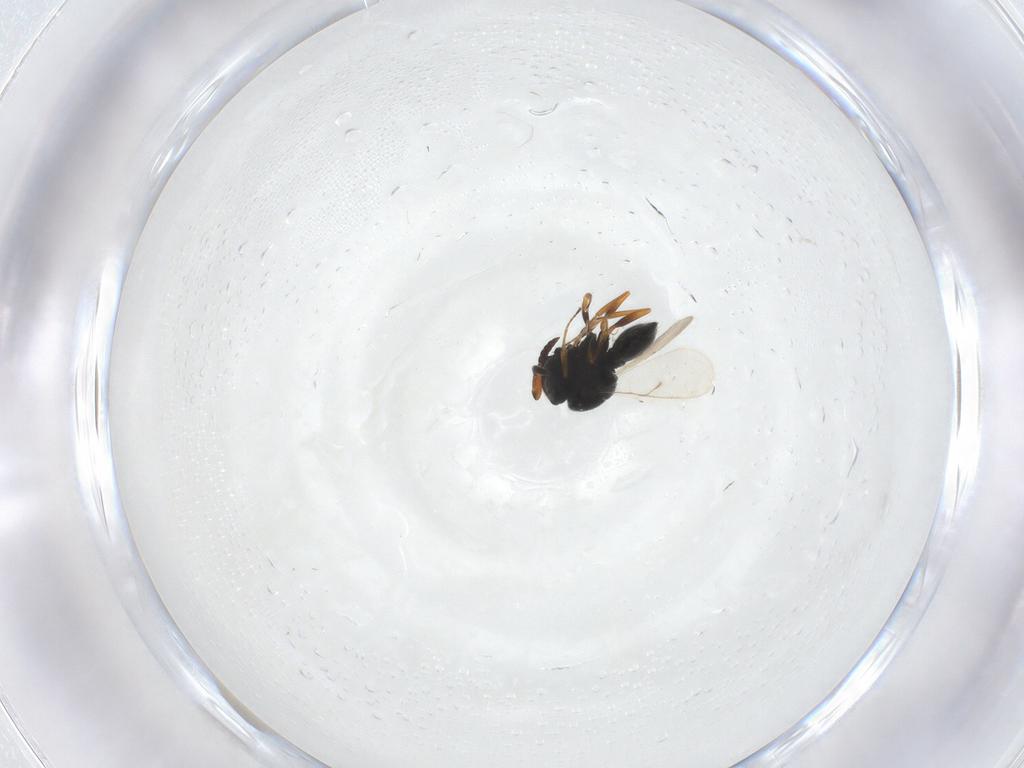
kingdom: Animalia
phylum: Arthropoda
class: Insecta
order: Hymenoptera
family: Scelionidae
